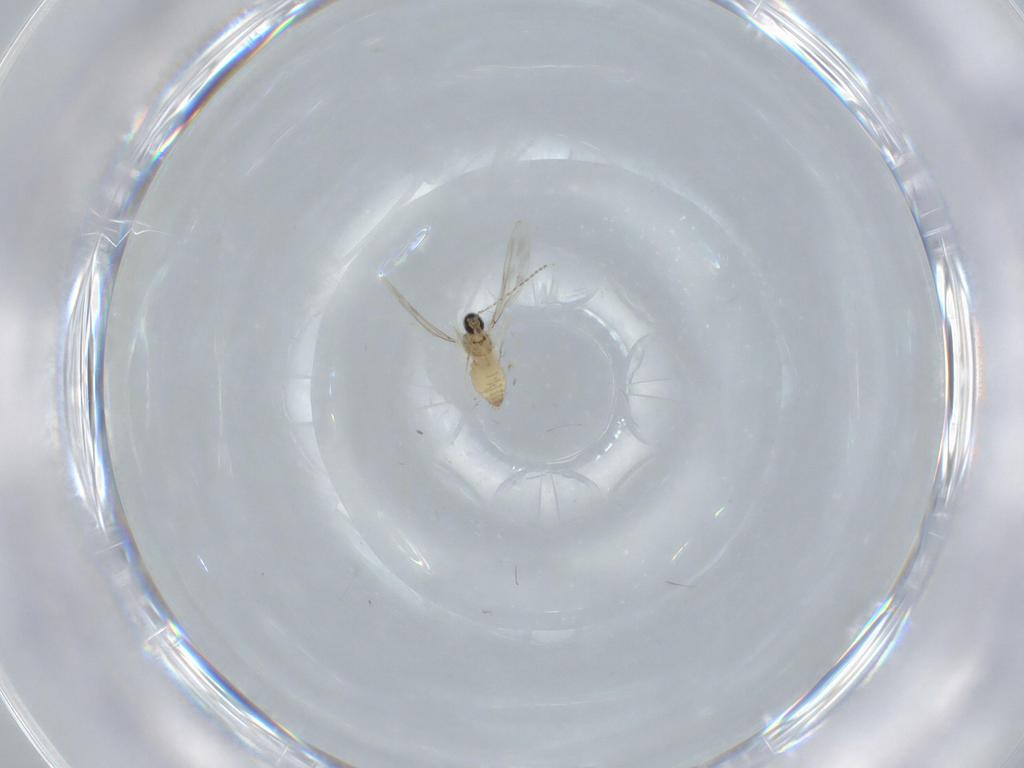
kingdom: Animalia
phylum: Arthropoda
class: Insecta
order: Diptera
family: Cecidomyiidae
